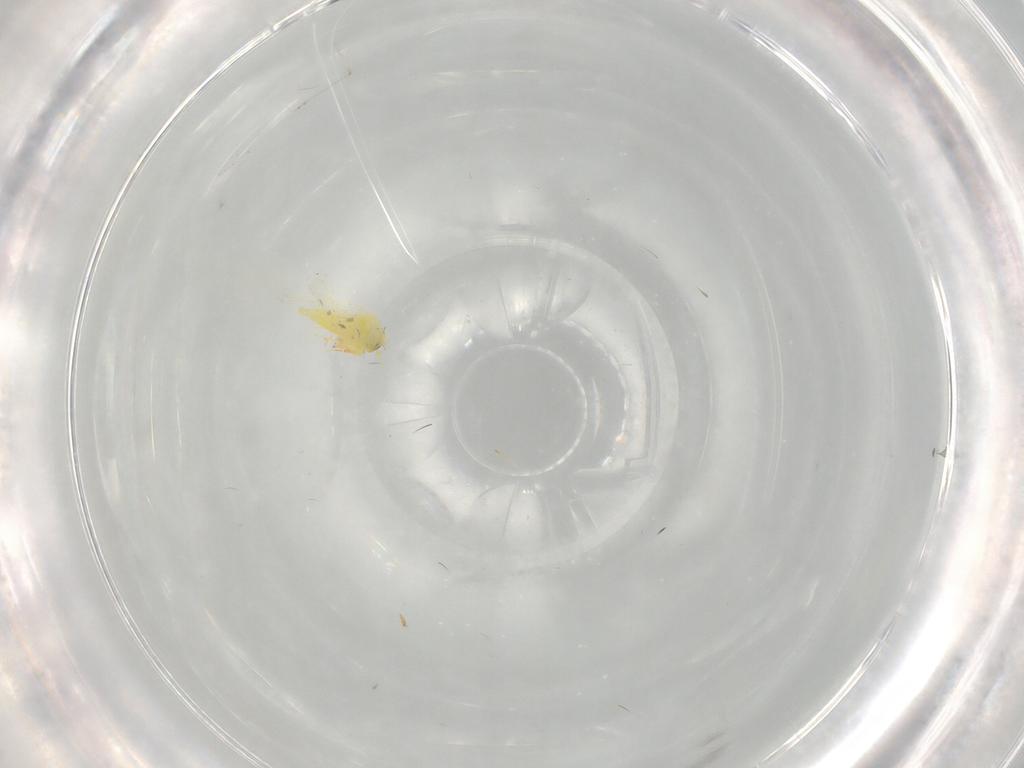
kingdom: Animalia
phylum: Arthropoda
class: Insecta
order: Hemiptera
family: Aleyrodidae
